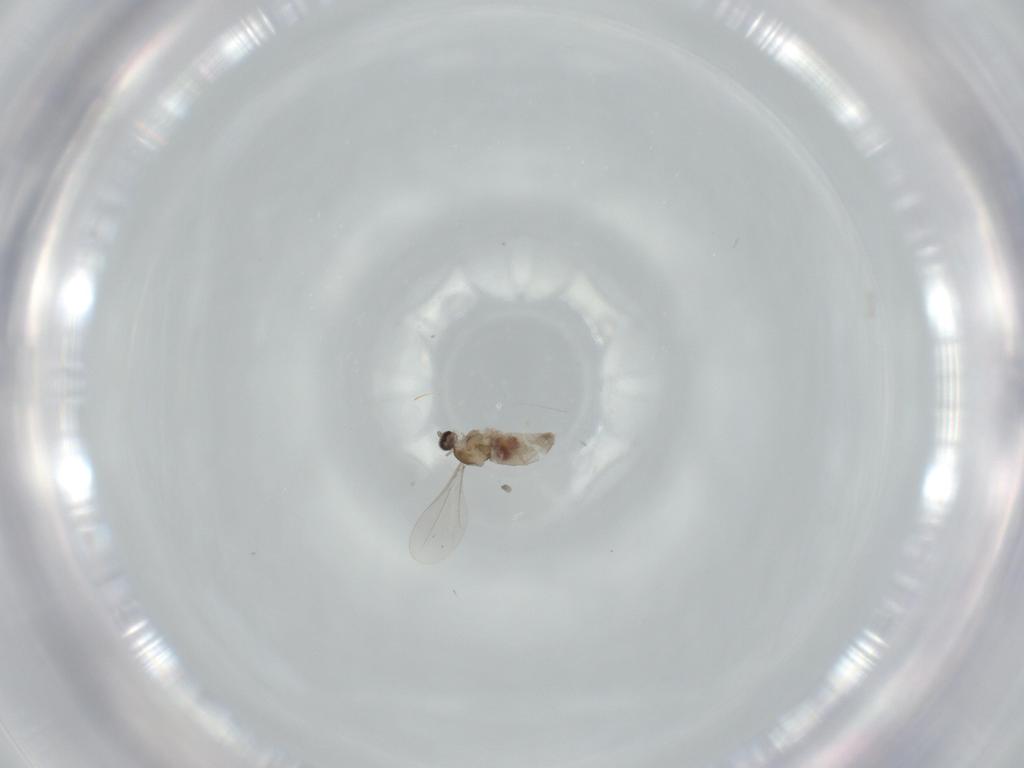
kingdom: Animalia
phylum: Arthropoda
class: Insecta
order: Diptera
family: Cecidomyiidae
